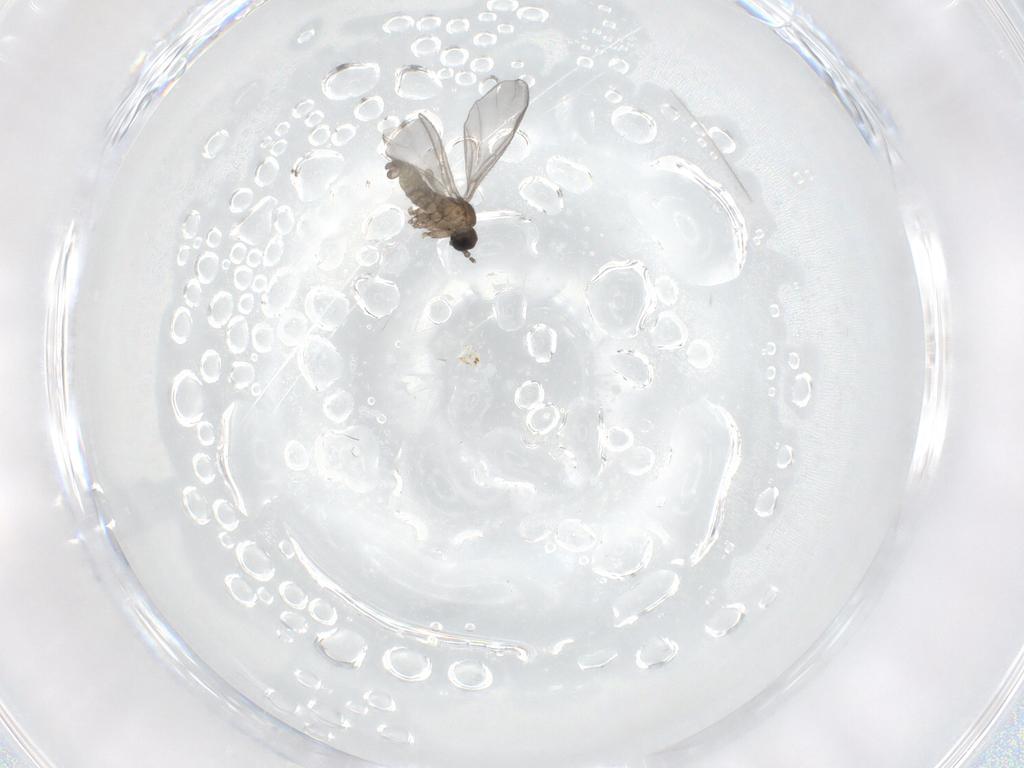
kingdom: Animalia
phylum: Arthropoda
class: Insecta
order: Diptera
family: Sciaridae
